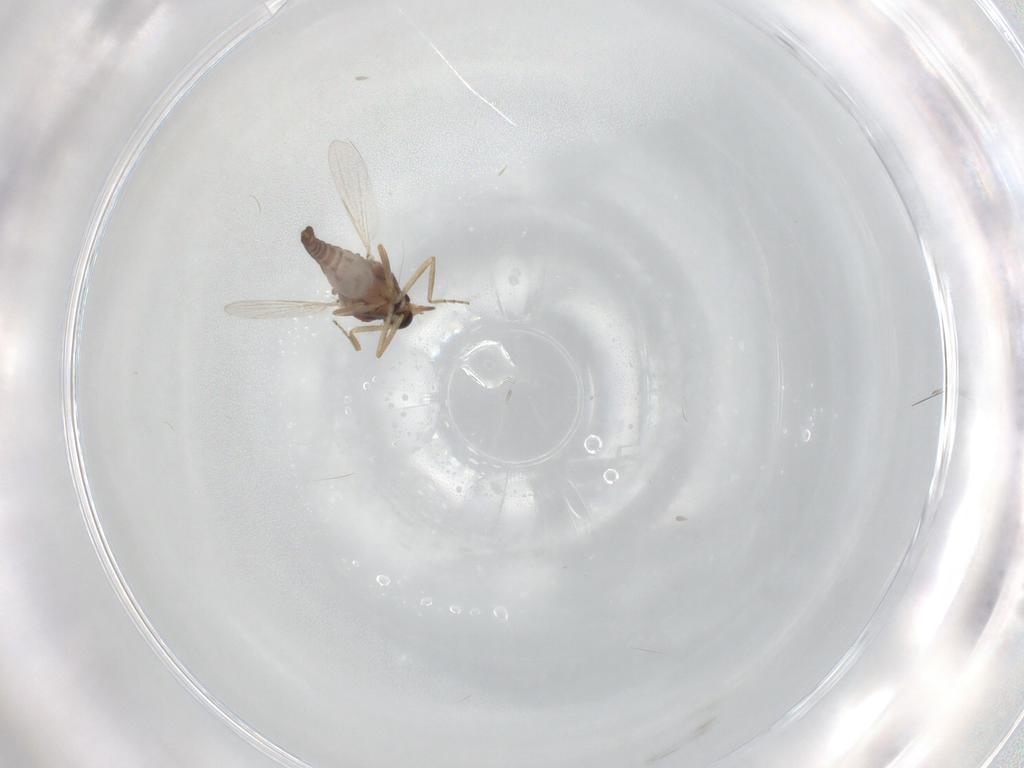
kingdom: Animalia
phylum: Arthropoda
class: Insecta
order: Diptera
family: Ceratopogonidae
